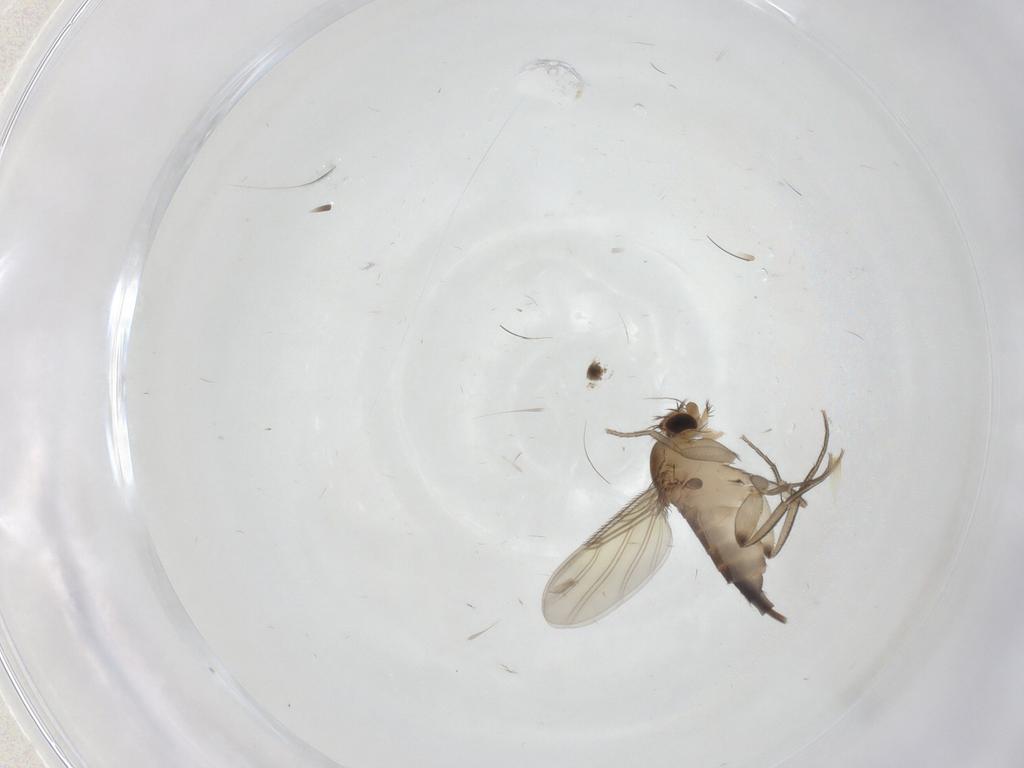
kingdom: Animalia
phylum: Arthropoda
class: Insecta
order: Diptera
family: Phoridae
